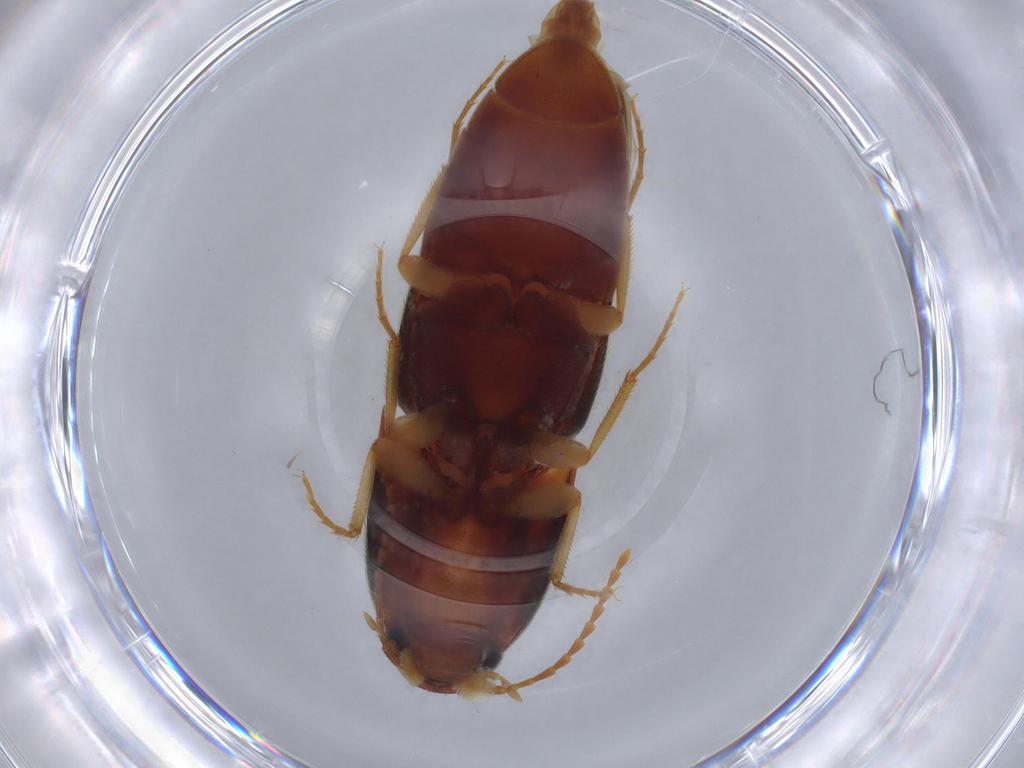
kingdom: Animalia
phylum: Arthropoda
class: Insecta
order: Coleoptera
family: Elateridae
